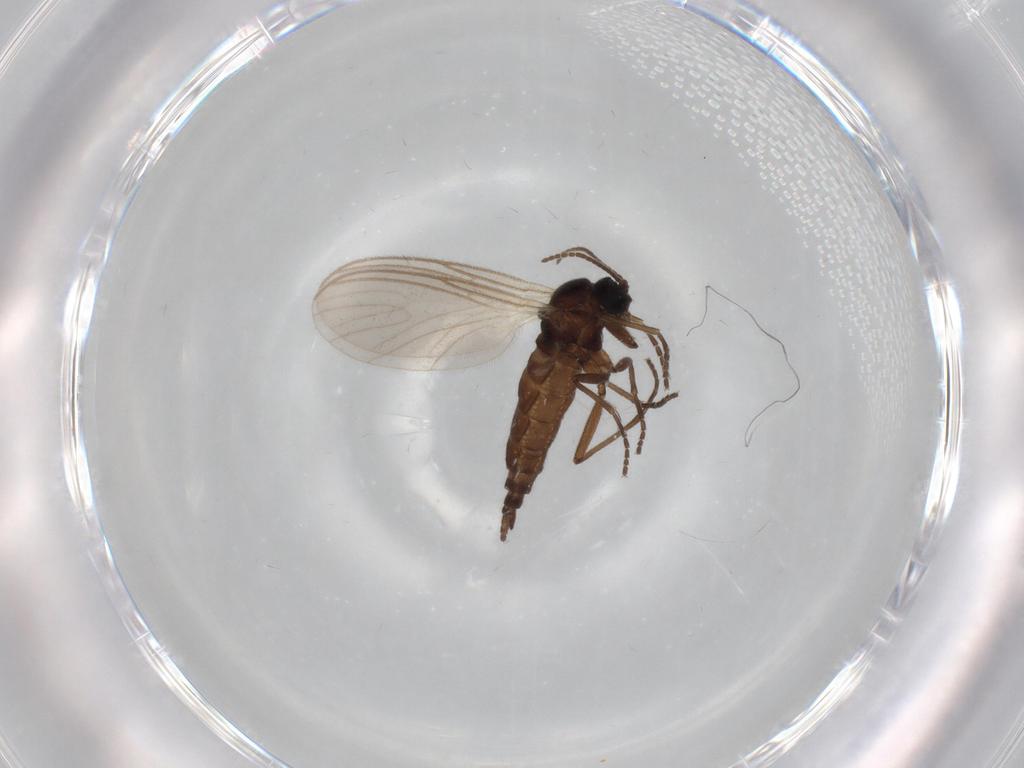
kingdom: Animalia
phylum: Arthropoda
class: Insecta
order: Diptera
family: Sciaridae
